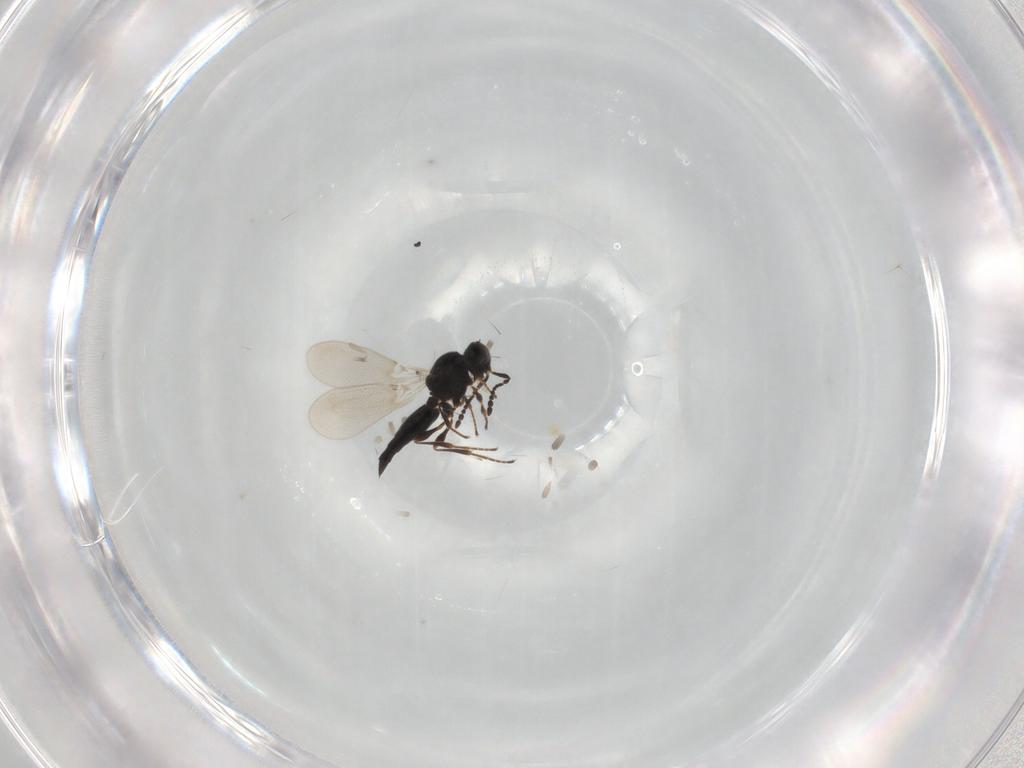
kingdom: Animalia
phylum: Arthropoda
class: Insecta
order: Hymenoptera
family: Platygastridae
